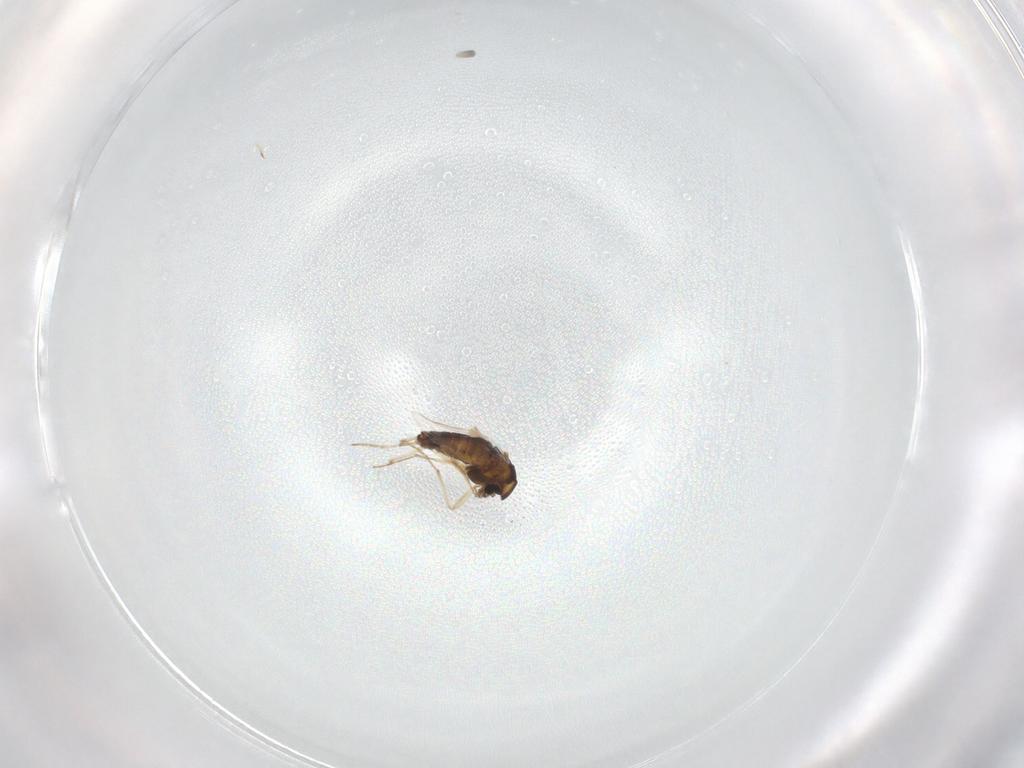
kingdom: Animalia
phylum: Arthropoda
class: Insecta
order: Diptera
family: Chironomidae
